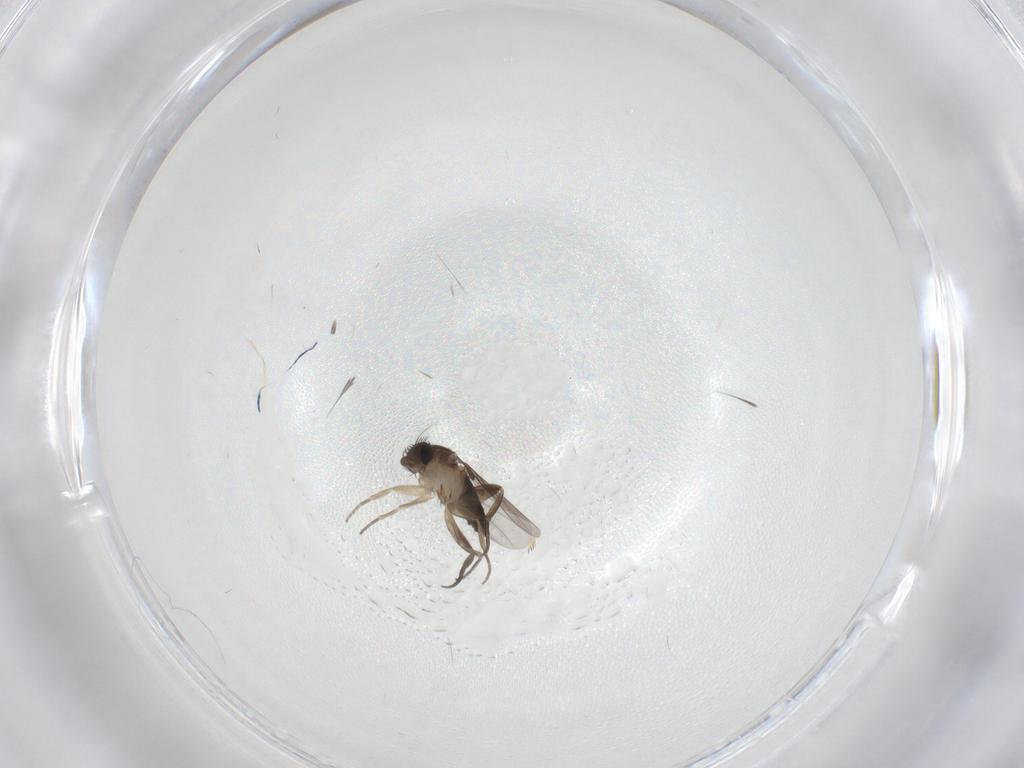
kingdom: Animalia
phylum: Arthropoda
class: Insecta
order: Diptera
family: Phoridae
